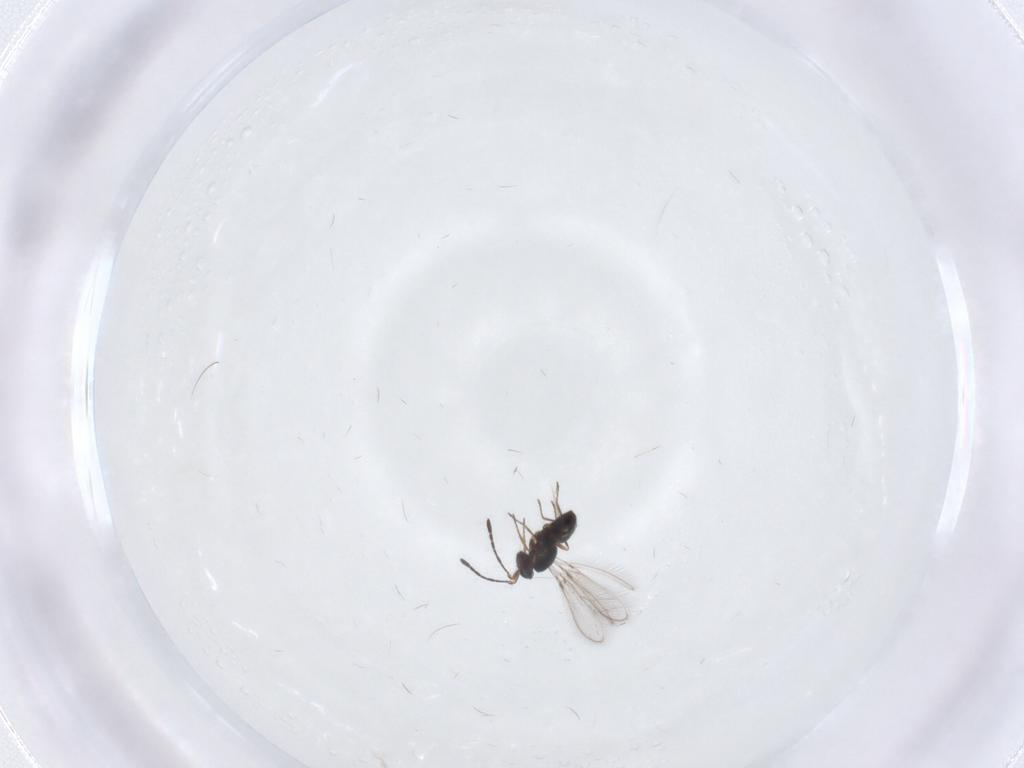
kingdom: Animalia
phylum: Arthropoda
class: Insecta
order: Hymenoptera
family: Mymaridae
